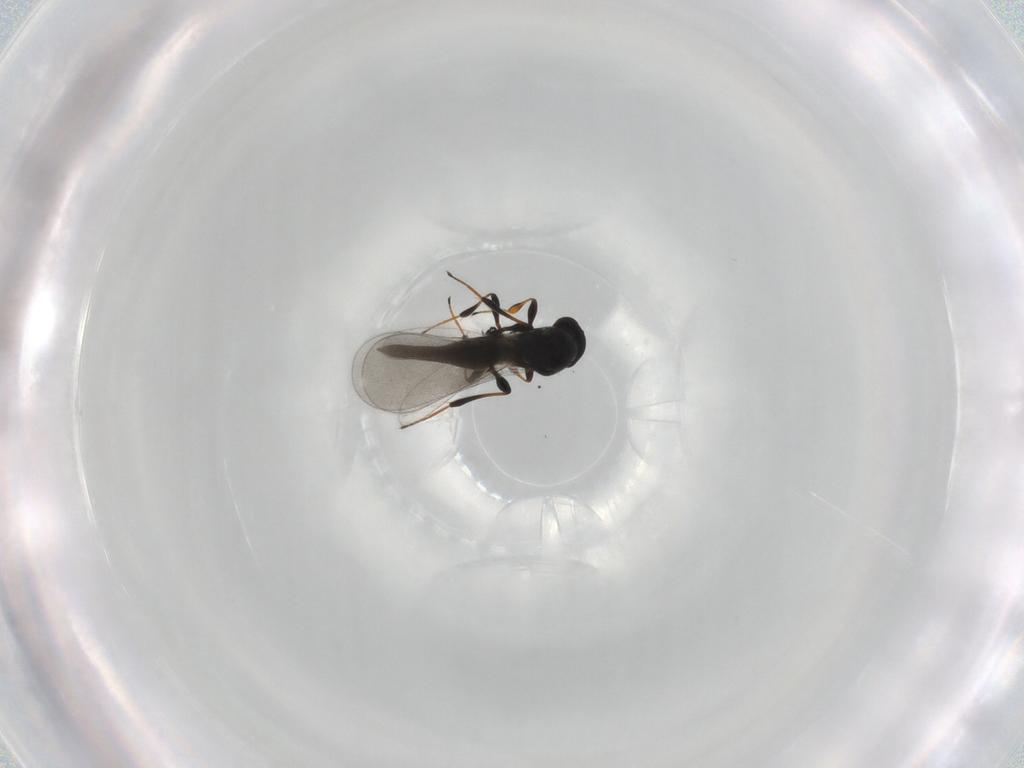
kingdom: Animalia
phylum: Arthropoda
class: Insecta
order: Hymenoptera
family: Platygastridae
